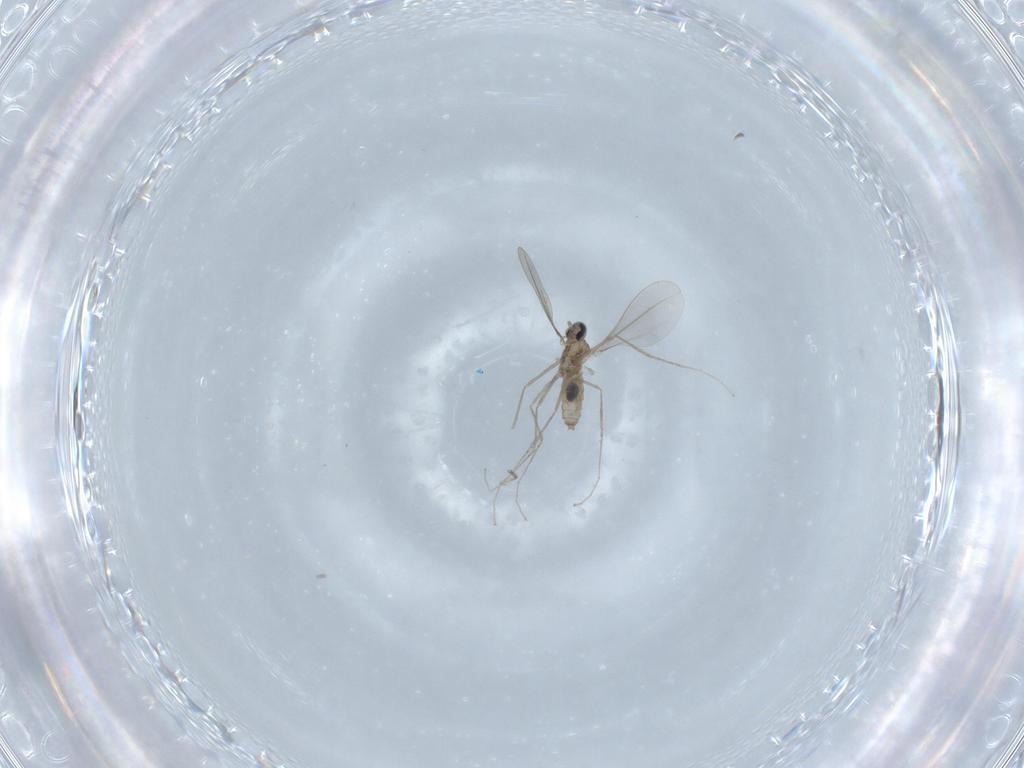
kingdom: Animalia
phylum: Arthropoda
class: Insecta
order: Diptera
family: Cecidomyiidae
